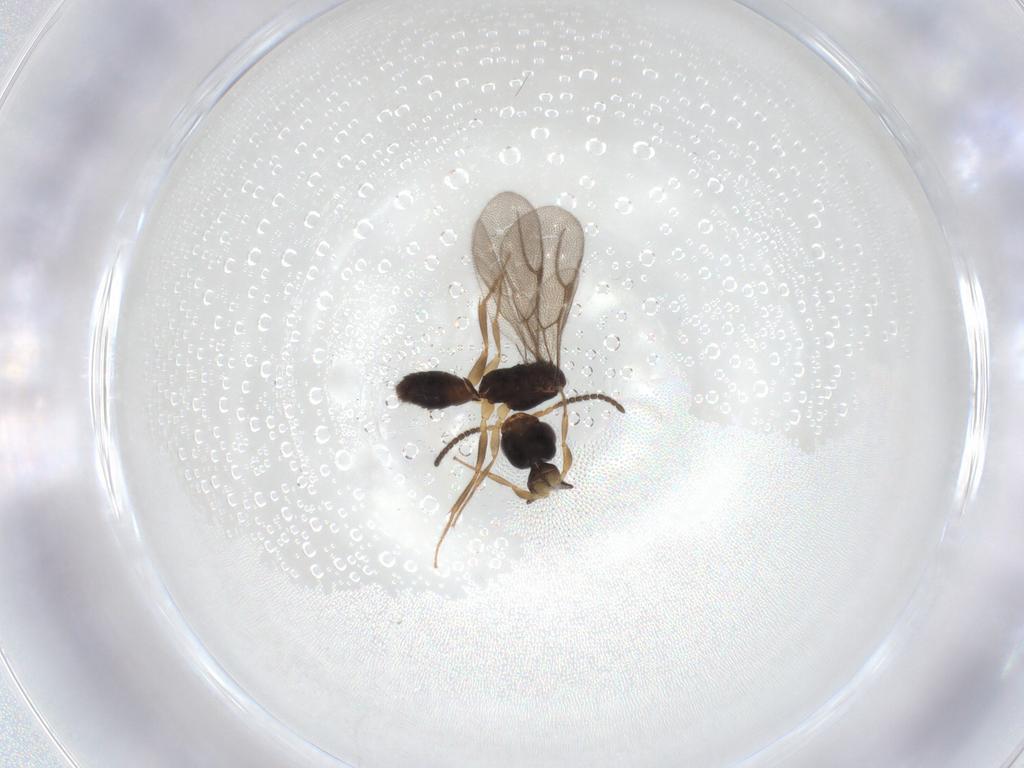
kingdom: Animalia
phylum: Arthropoda
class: Insecta
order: Hymenoptera
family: Bethylidae
